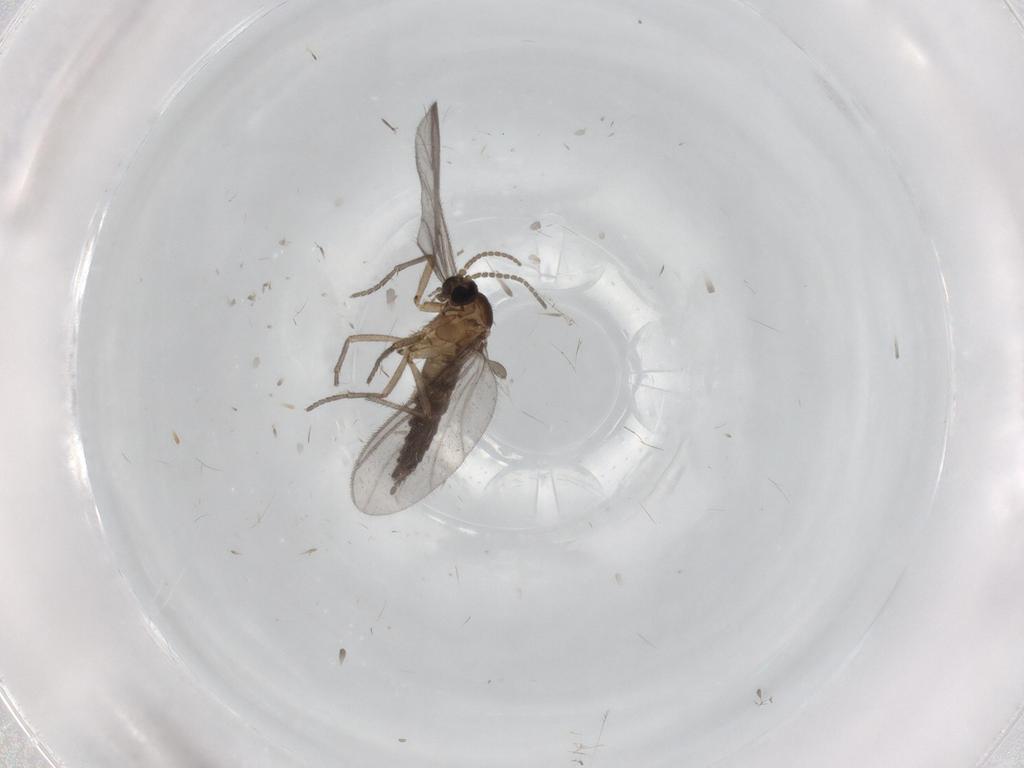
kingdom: Animalia
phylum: Arthropoda
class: Insecta
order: Diptera
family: Sciaridae
